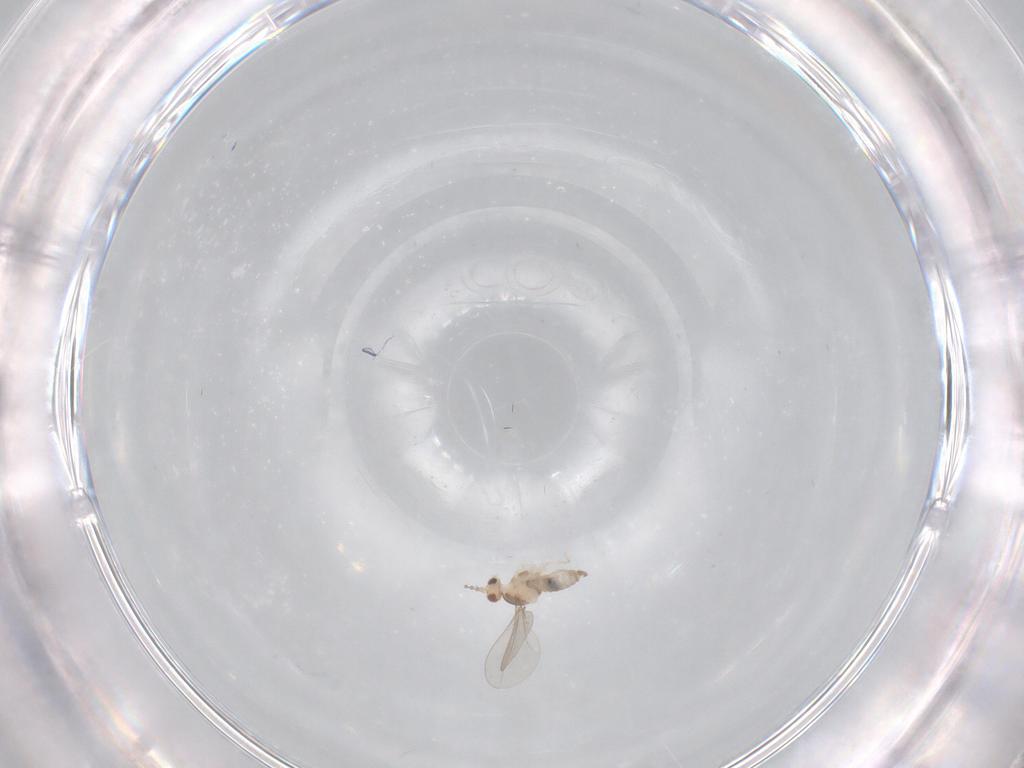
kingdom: Animalia
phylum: Arthropoda
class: Insecta
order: Diptera
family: Cecidomyiidae
